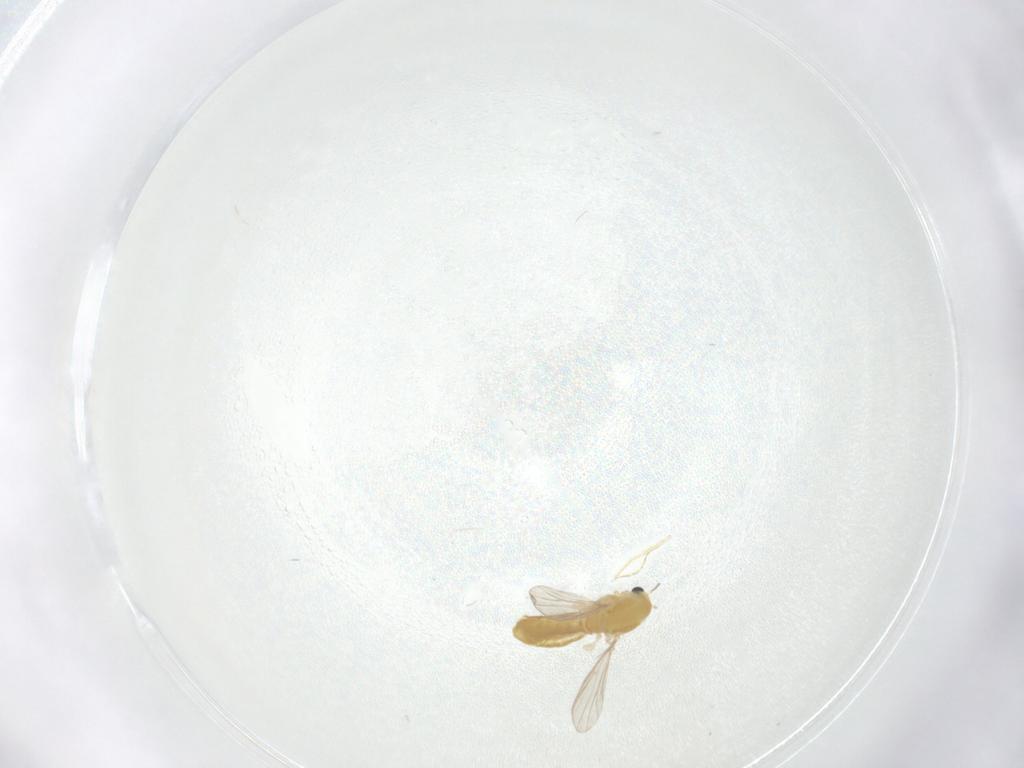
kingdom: Animalia
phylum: Arthropoda
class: Insecta
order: Diptera
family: Chironomidae
